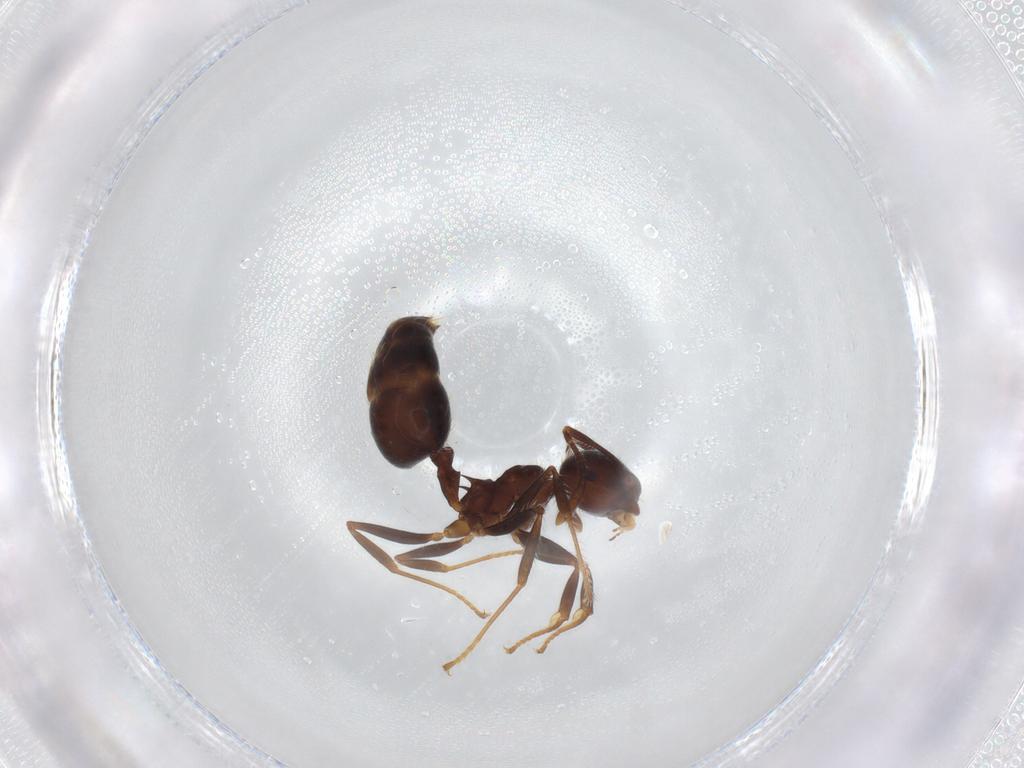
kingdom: Animalia
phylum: Arthropoda
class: Insecta
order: Hymenoptera
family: Formicidae
